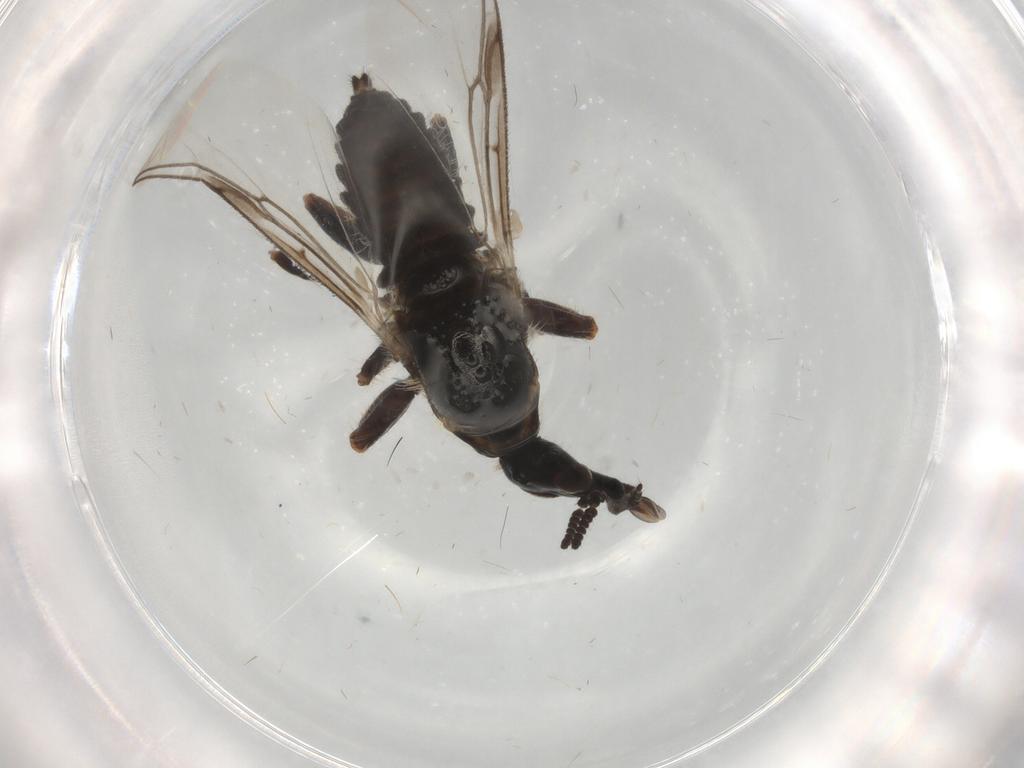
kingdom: Animalia
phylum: Arthropoda
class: Insecta
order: Diptera
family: Bibionidae
